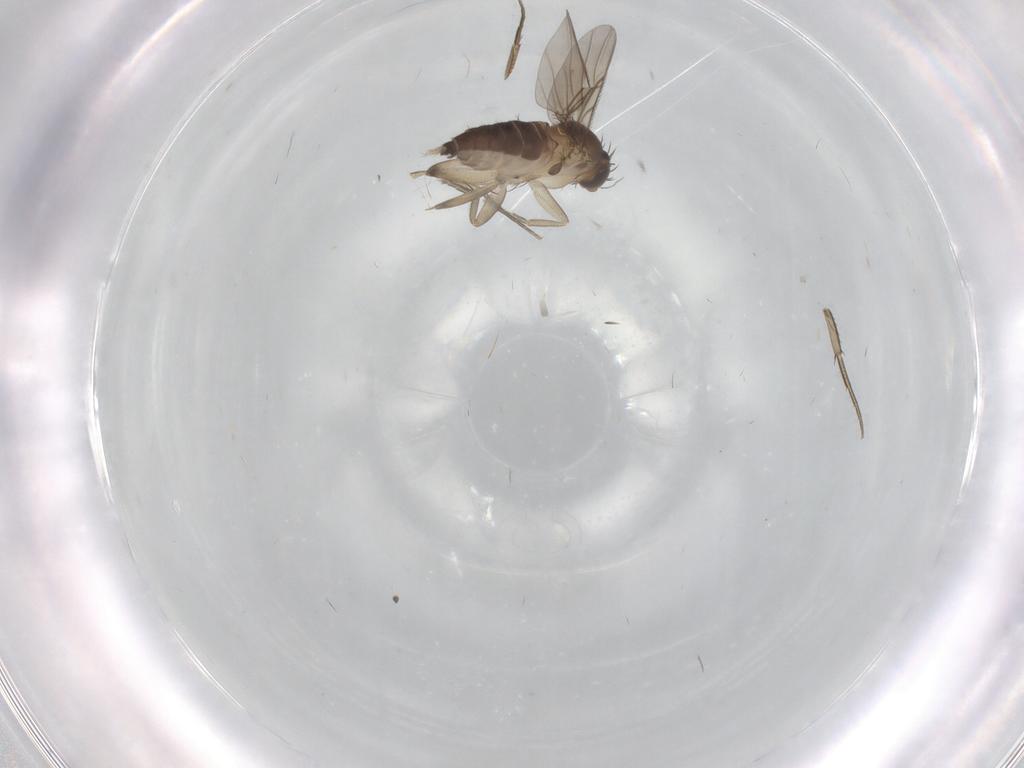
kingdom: Animalia
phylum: Arthropoda
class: Insecta
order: Diptera
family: Phoridae
